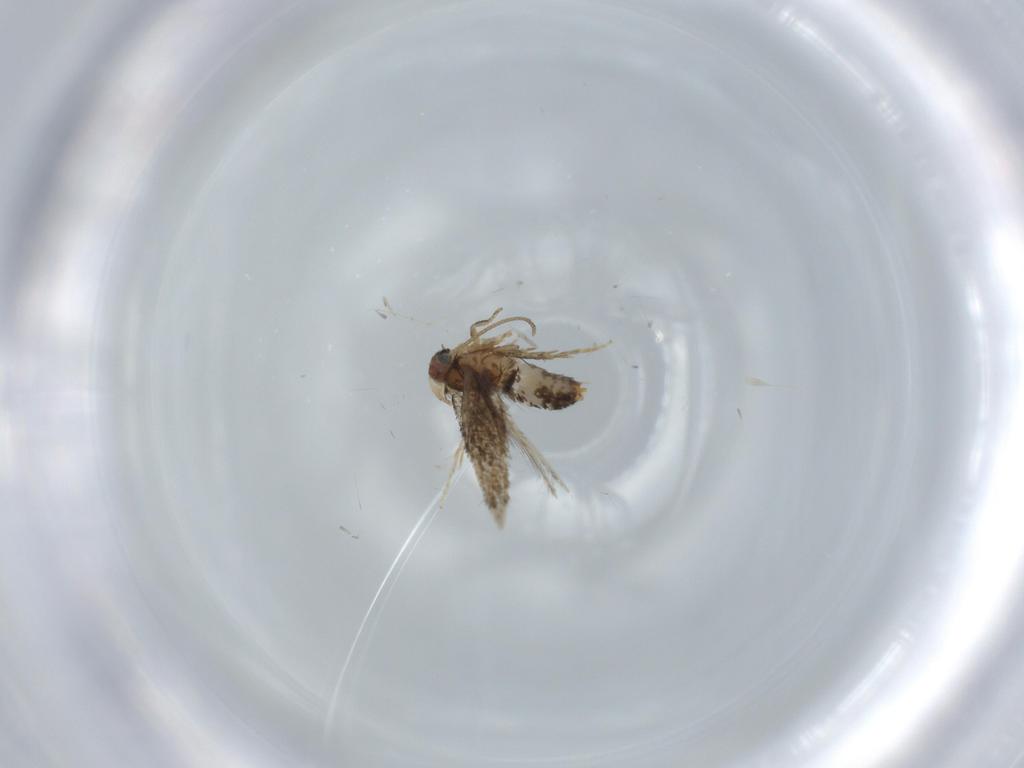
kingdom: Animalia
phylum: Arthropoda
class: Insecta
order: Lepidoptera
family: Nepticulidae
